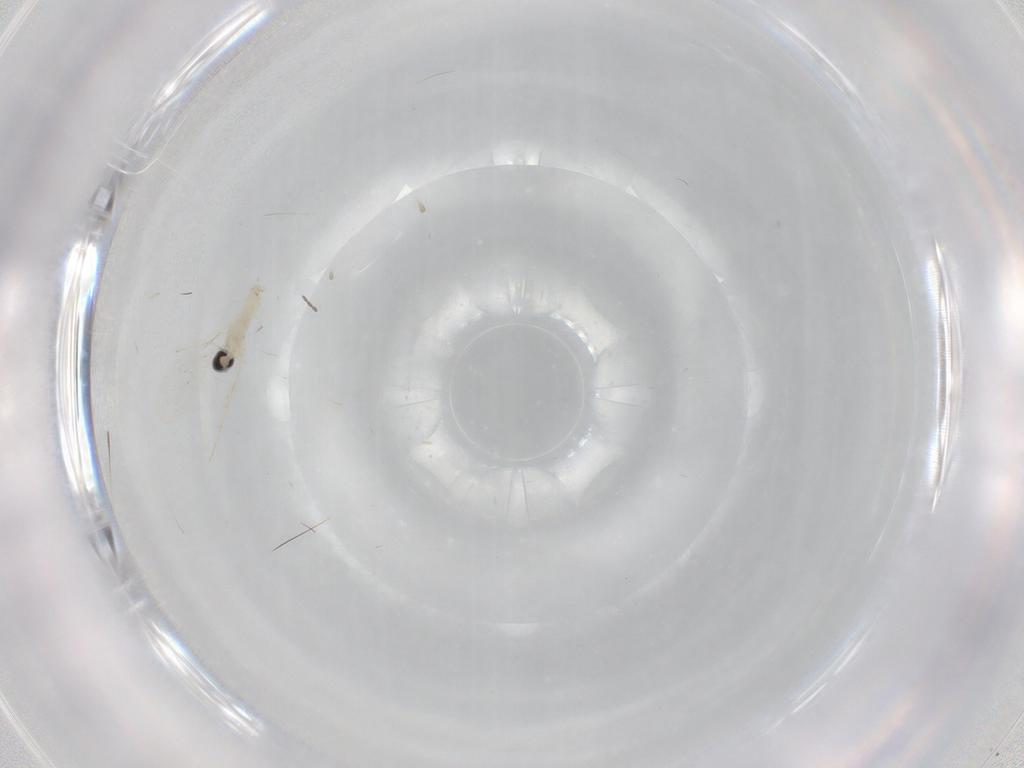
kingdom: Animalia
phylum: Arthropoda
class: Insecta
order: Diptera
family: Cecidomyiidae
